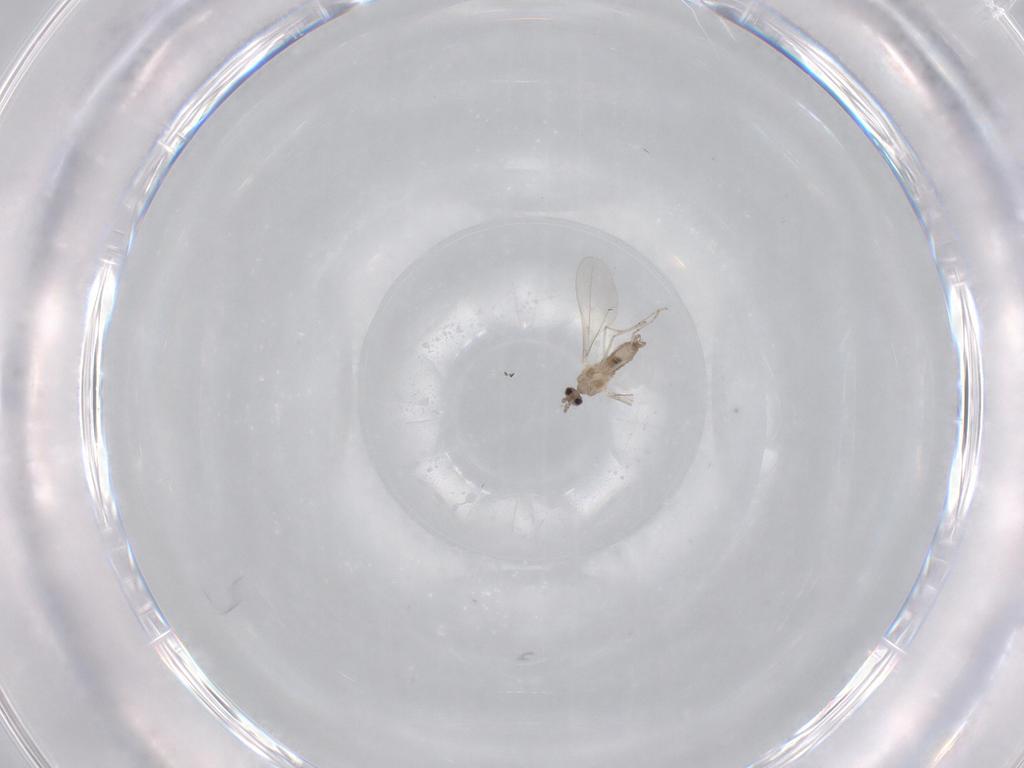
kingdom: Animalia
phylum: Arthropoda
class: Insecta
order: Diptera
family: Cecidomyiidae
